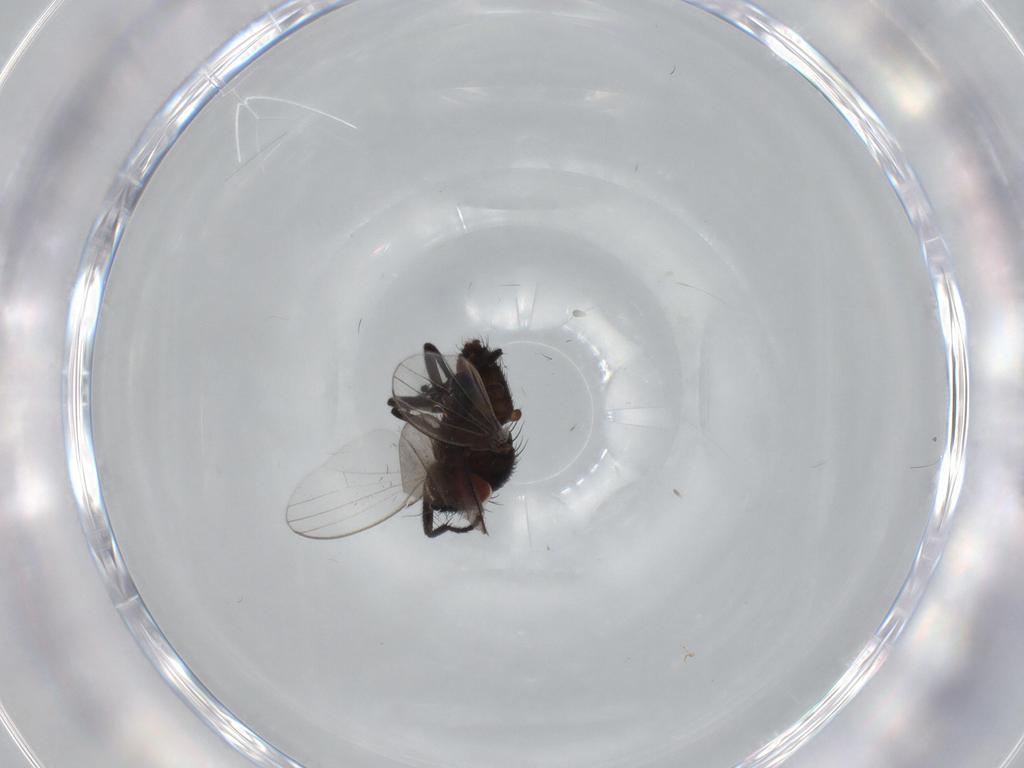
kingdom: Animalia
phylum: Arthropoda
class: Insecta
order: Diptera
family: Milichiidae
